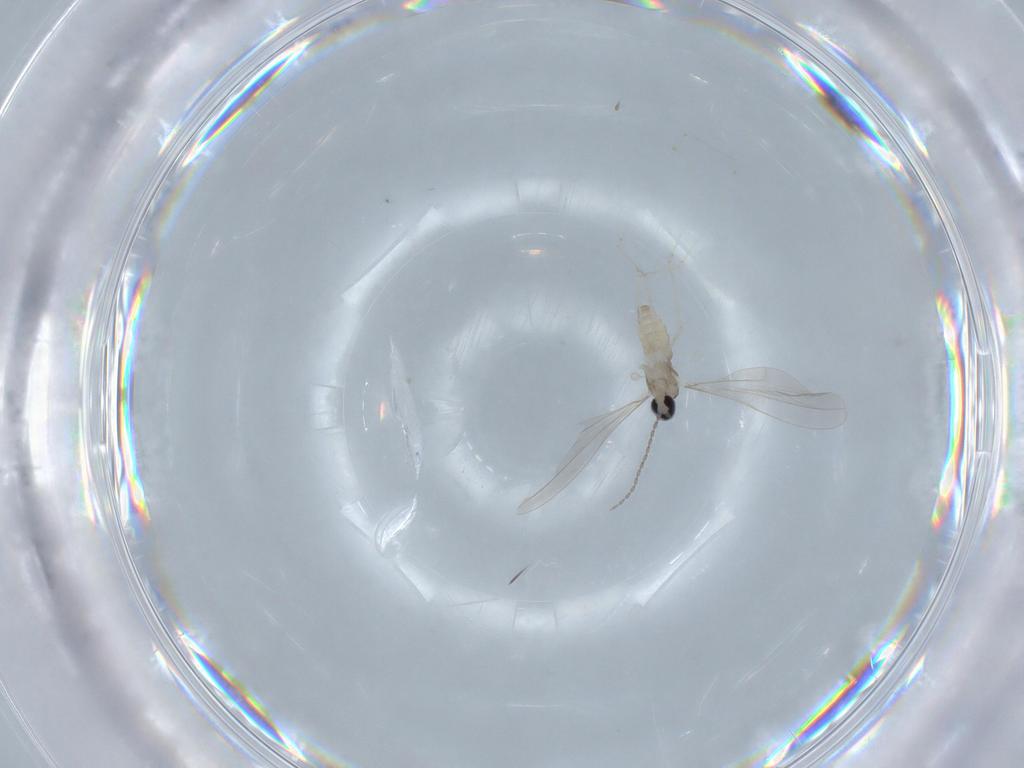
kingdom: Animalia
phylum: Arthropoda
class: Insecta
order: Diptera
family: Cecidomyiidae
